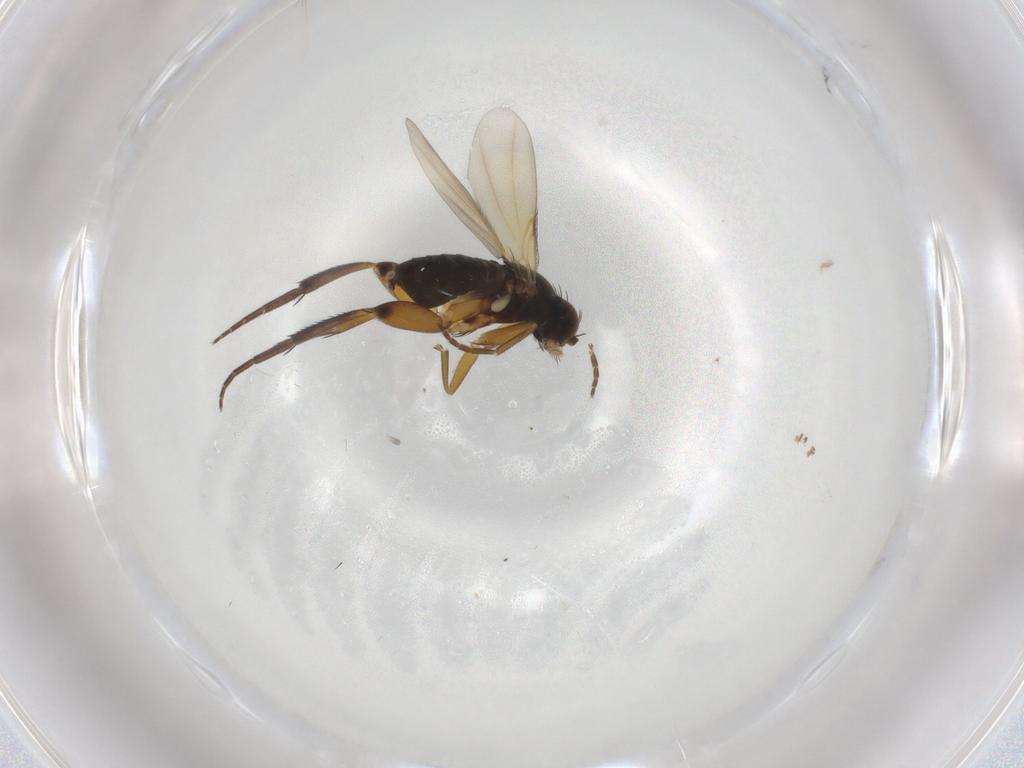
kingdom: Animalia
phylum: Arthropoda
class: Insecta
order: Diptera
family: Phoridae
